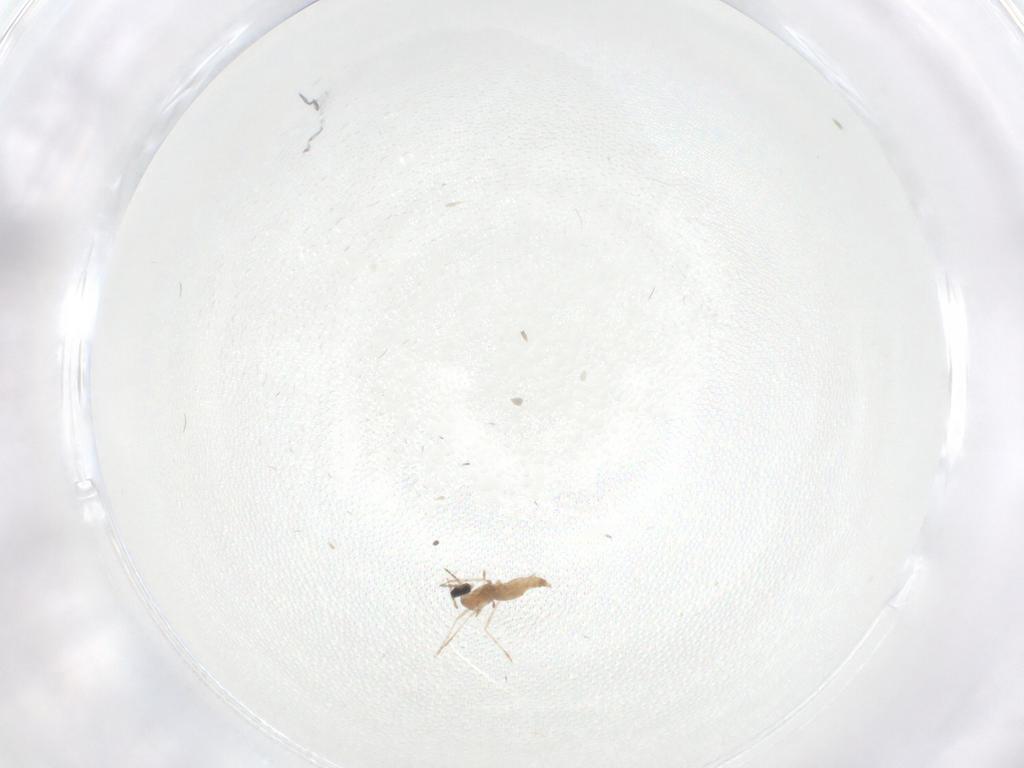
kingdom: Animalia
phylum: Arthropoda
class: Insecta
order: Diptera
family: Cecidomyiidae
